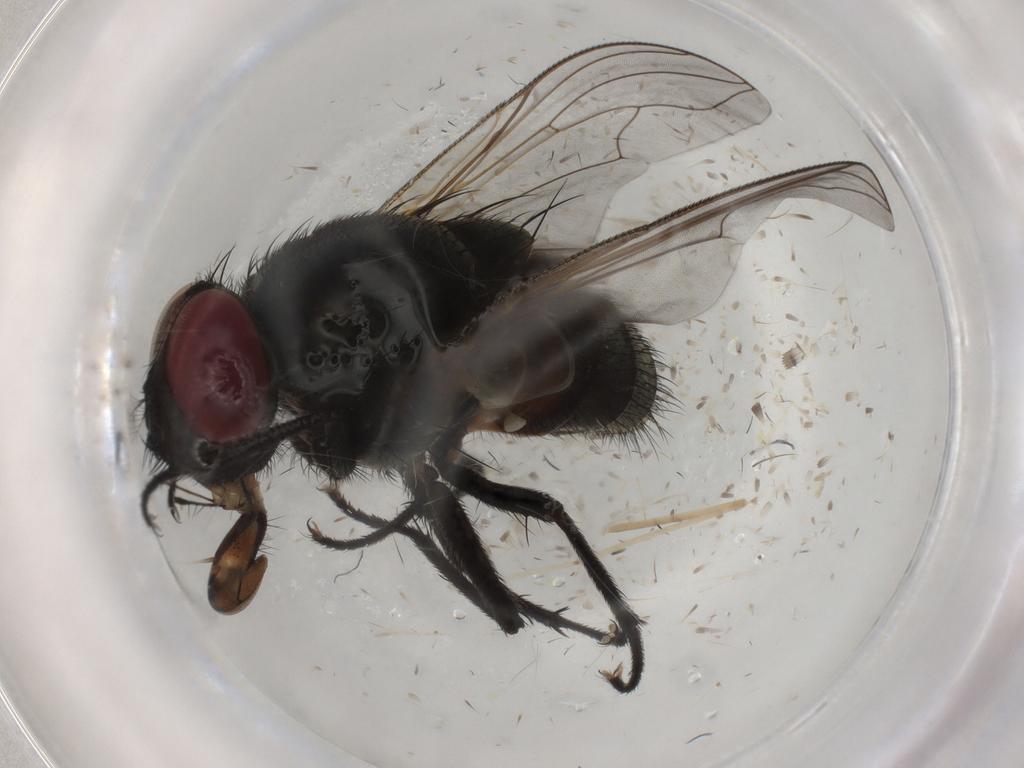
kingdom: Animalia
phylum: Arthropoda
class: Insecta
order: Diptera
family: Muscidae
